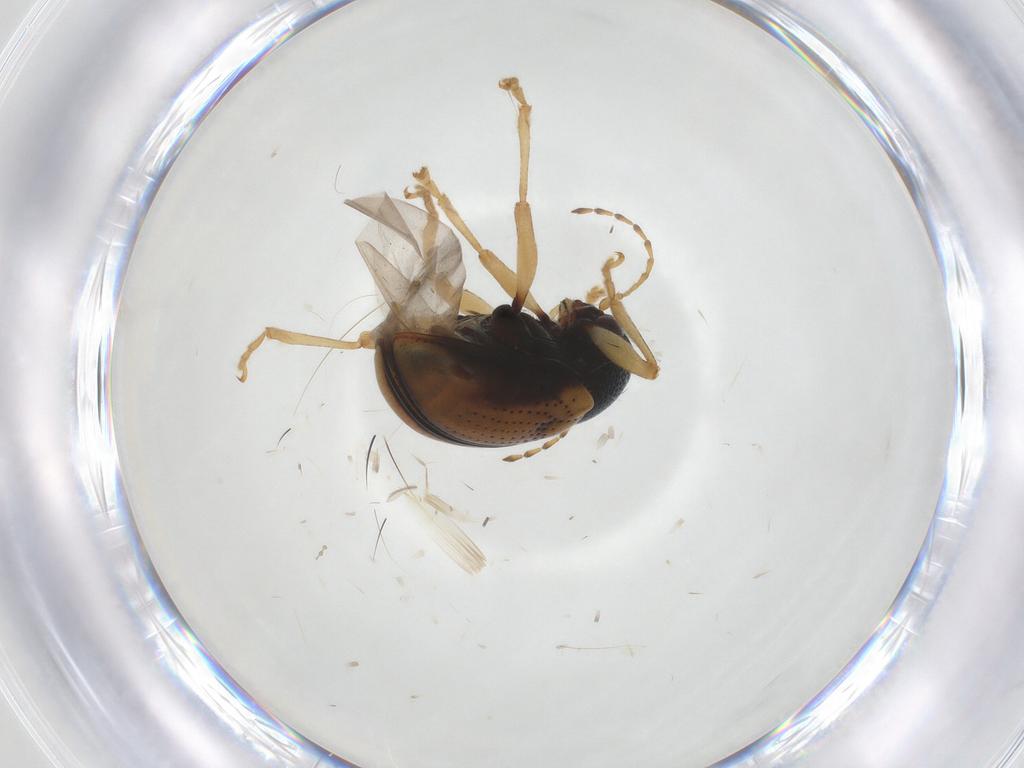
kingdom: Animalia
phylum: Arthropoda
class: Insecta
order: Coleoptera
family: Chrysomelidae
